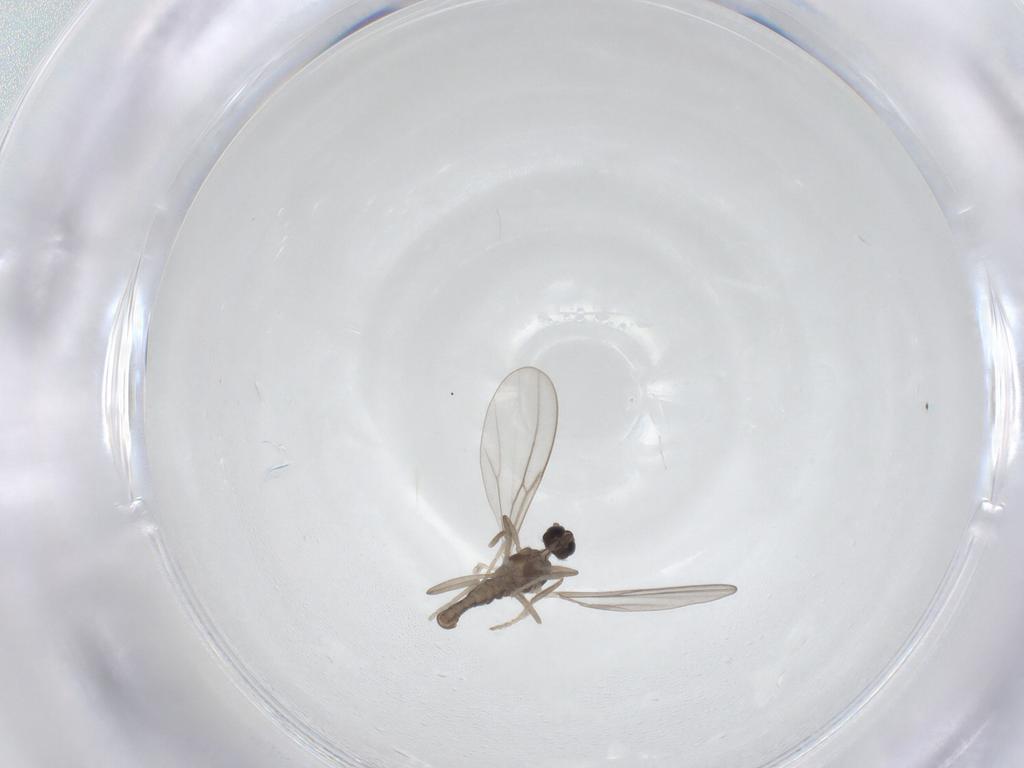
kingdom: Animalia
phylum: Arthropoda
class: Insecta
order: Diptera
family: Cecidomyiidae
